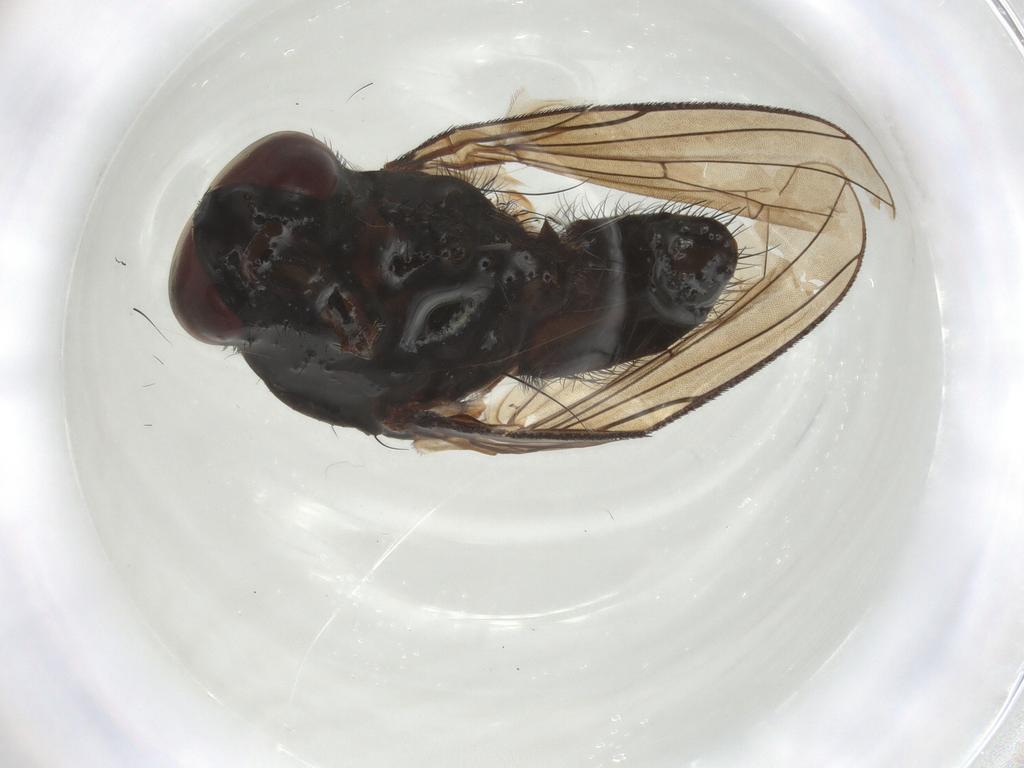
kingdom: Animalia
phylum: Arthropoda
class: Insecta
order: Diptera
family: Anthomyiidae
